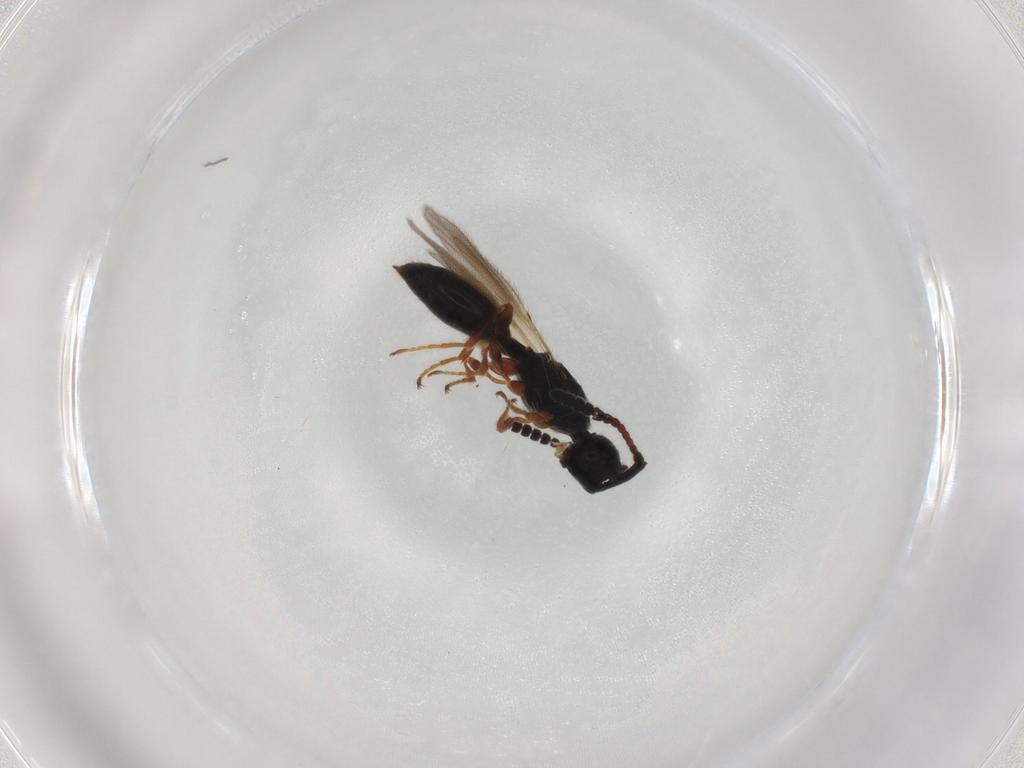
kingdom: Animalia
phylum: Arthropoda
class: Insecta
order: Hymenoptera
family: Diapriidae
